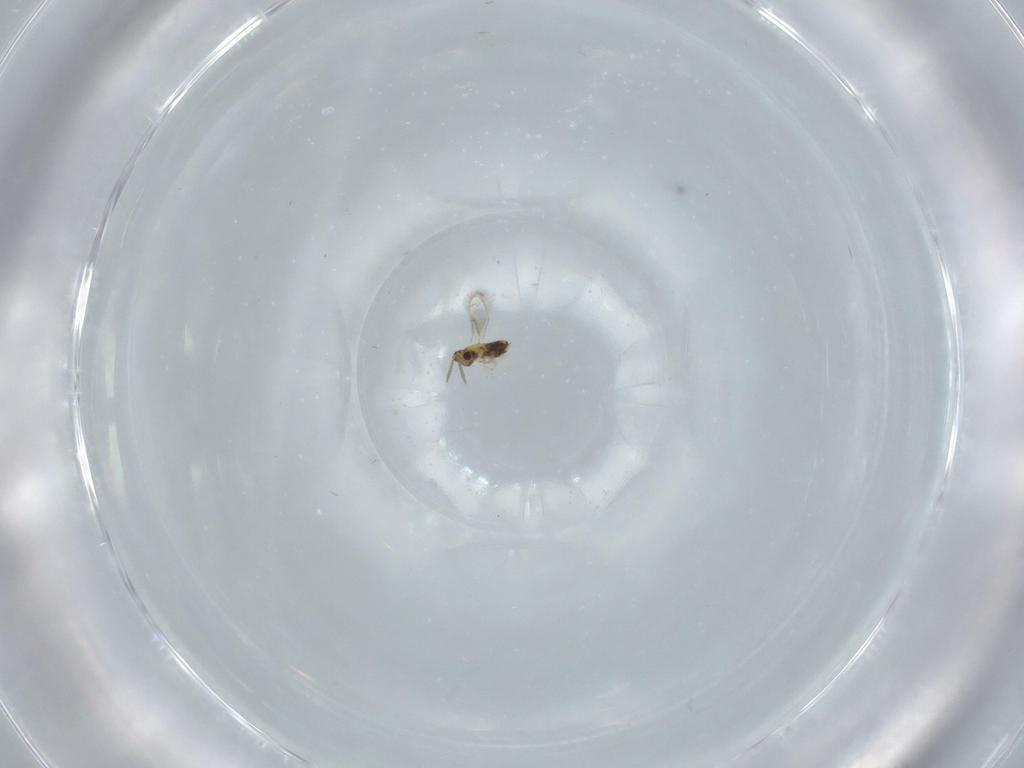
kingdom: Animalia
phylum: Arthropoda
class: Insecta
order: Hymenoptera
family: Aphelinidae
